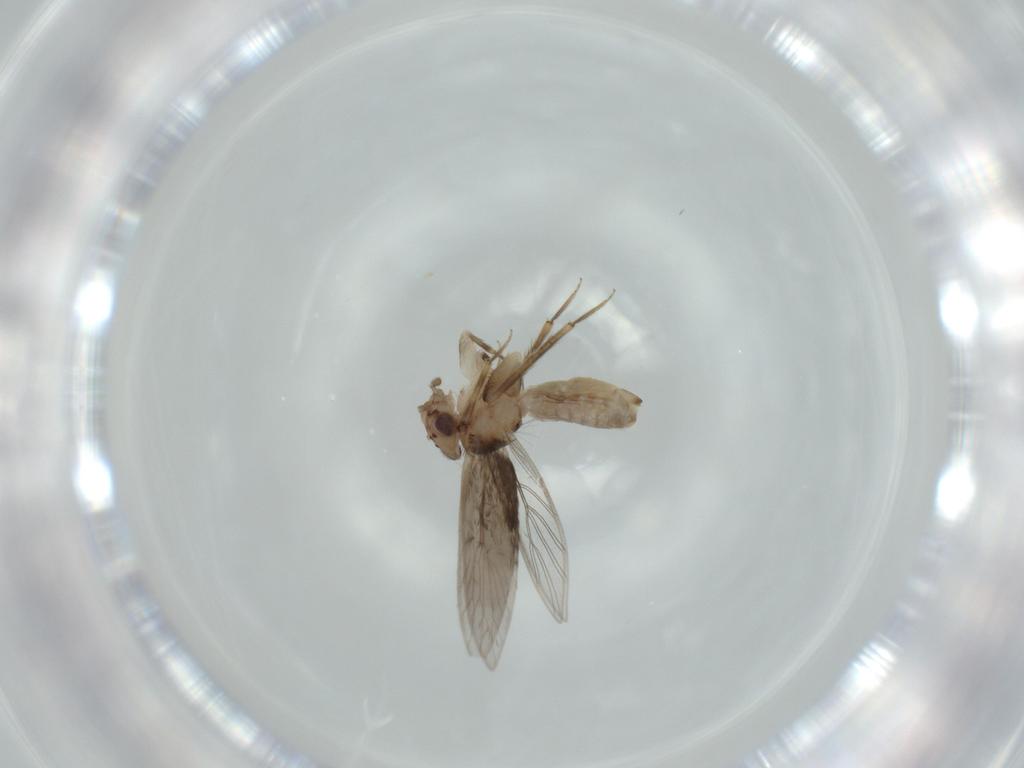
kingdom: Animalia
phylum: Arthropoda
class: Insecta
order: Psocodea
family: Lepidopsocidae
